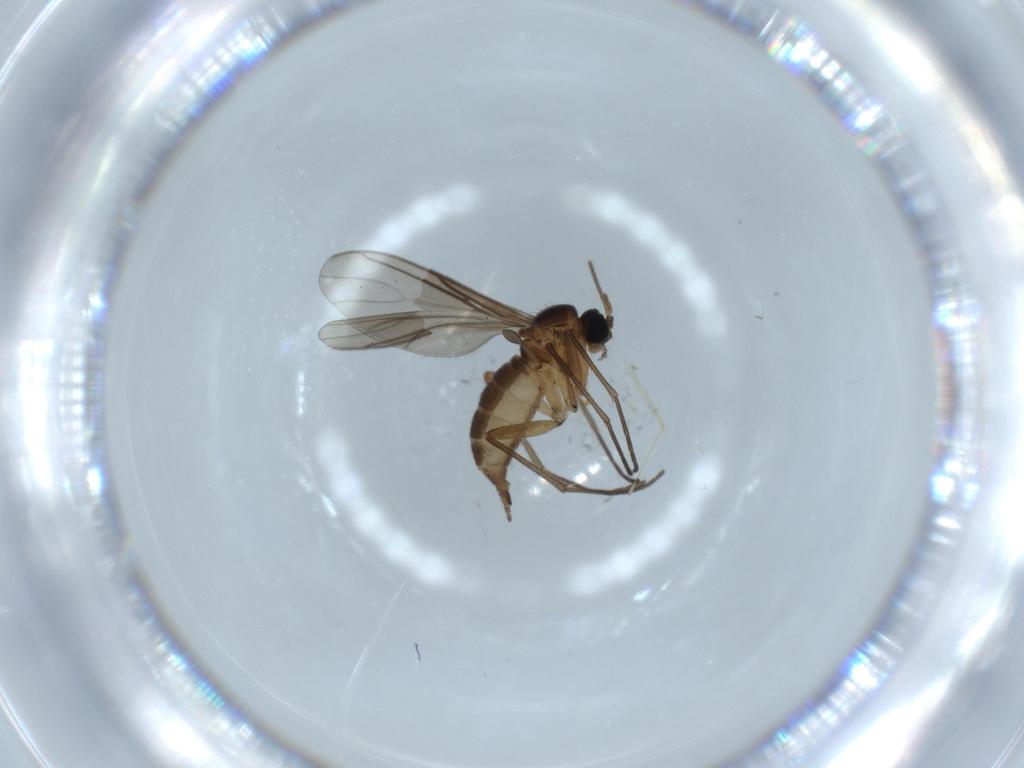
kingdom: Animalia
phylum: Arthropoda
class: Insecta
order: Diptera
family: Sciaridae
